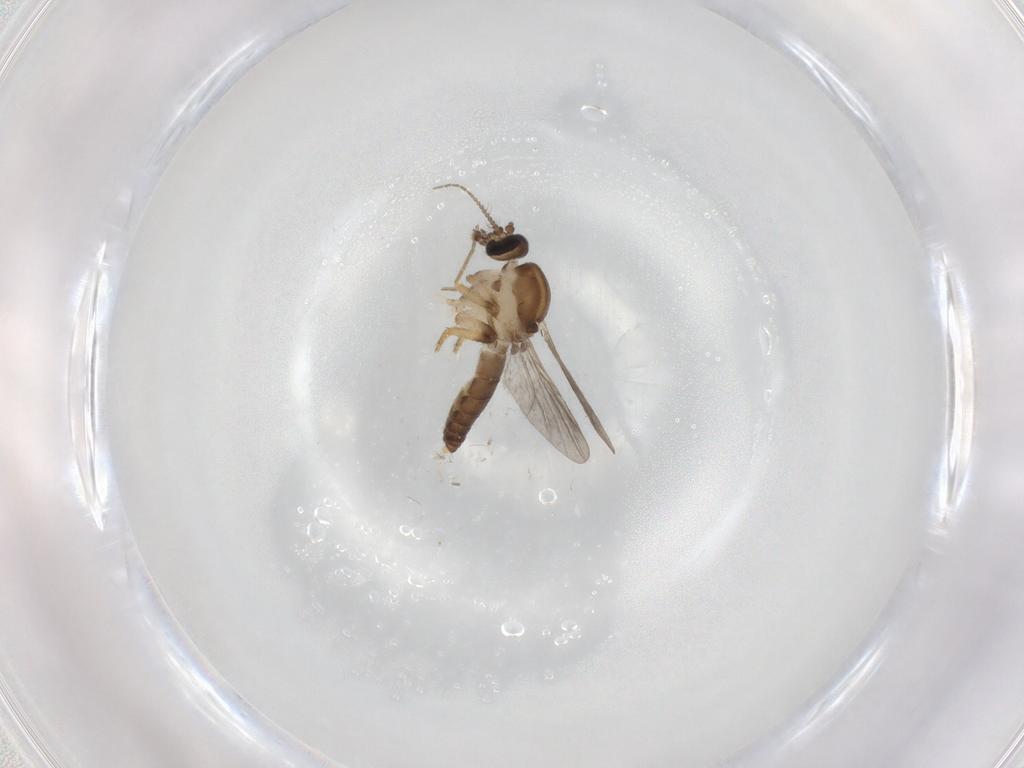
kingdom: Animalia
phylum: Arthropoda
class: Insecta
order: Diptera
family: Ceratopogonidae
